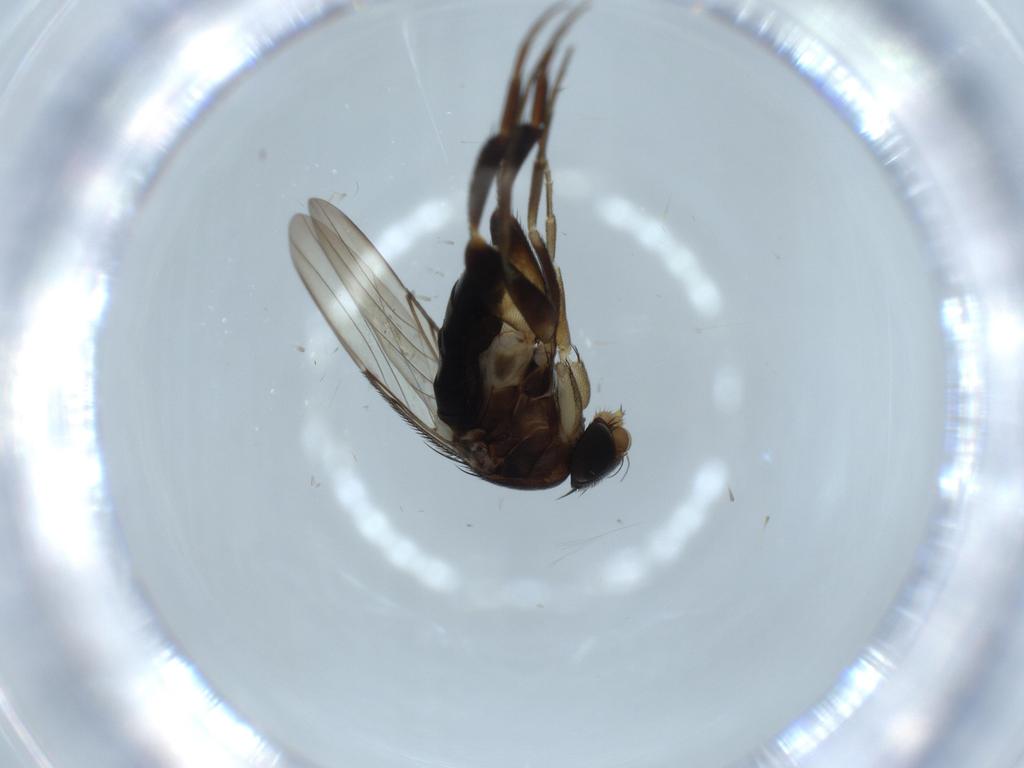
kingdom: Animalia
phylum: Arthropoda
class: Insecta
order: Diptera
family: Phoridae
